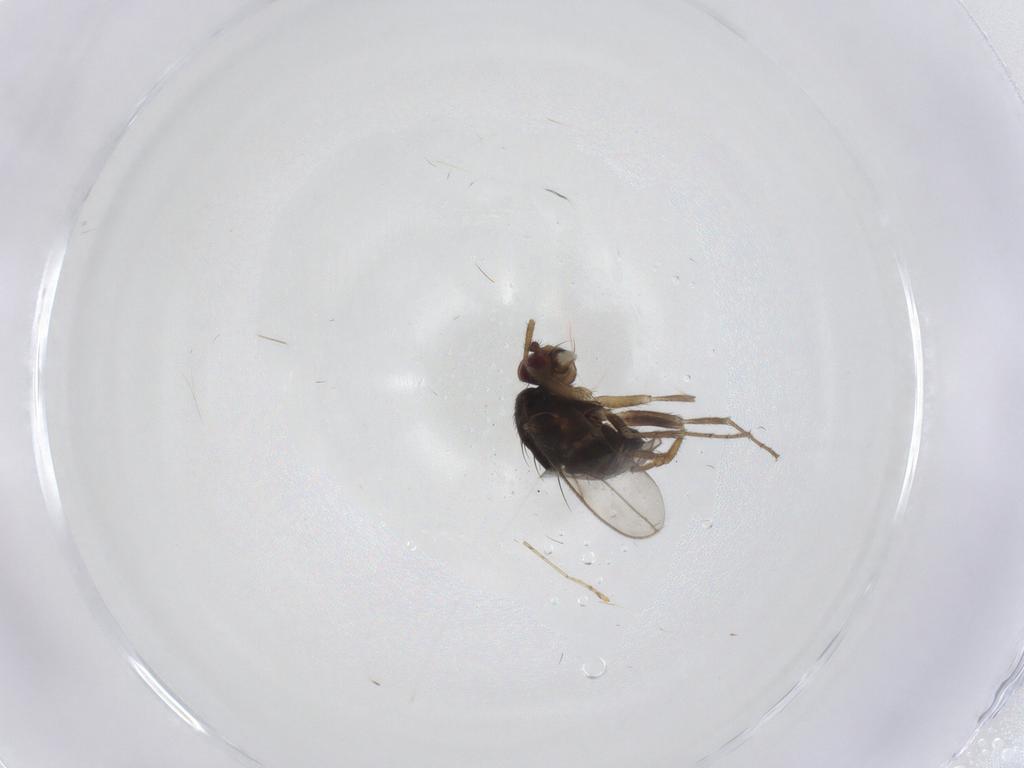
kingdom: Animalia
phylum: Arthropoda
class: Insecta
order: Diptera
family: Sphaeroceridae
